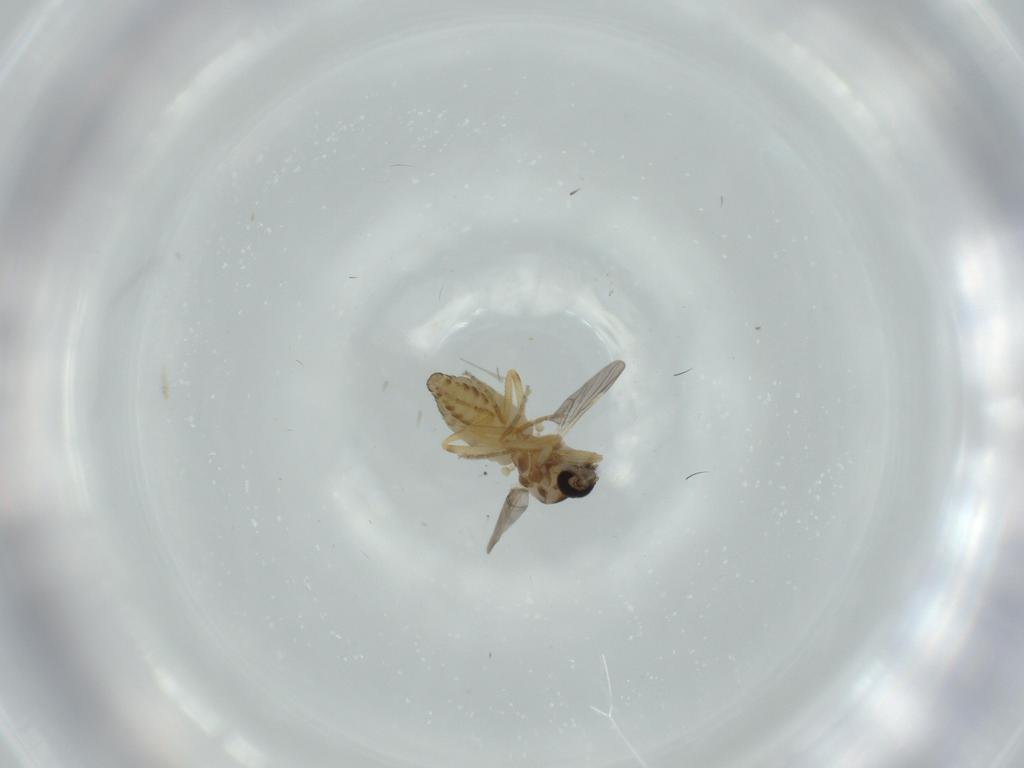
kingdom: Animalia
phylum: Arthropoda
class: Insecta
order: Diptera
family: Ceratopogonidae
